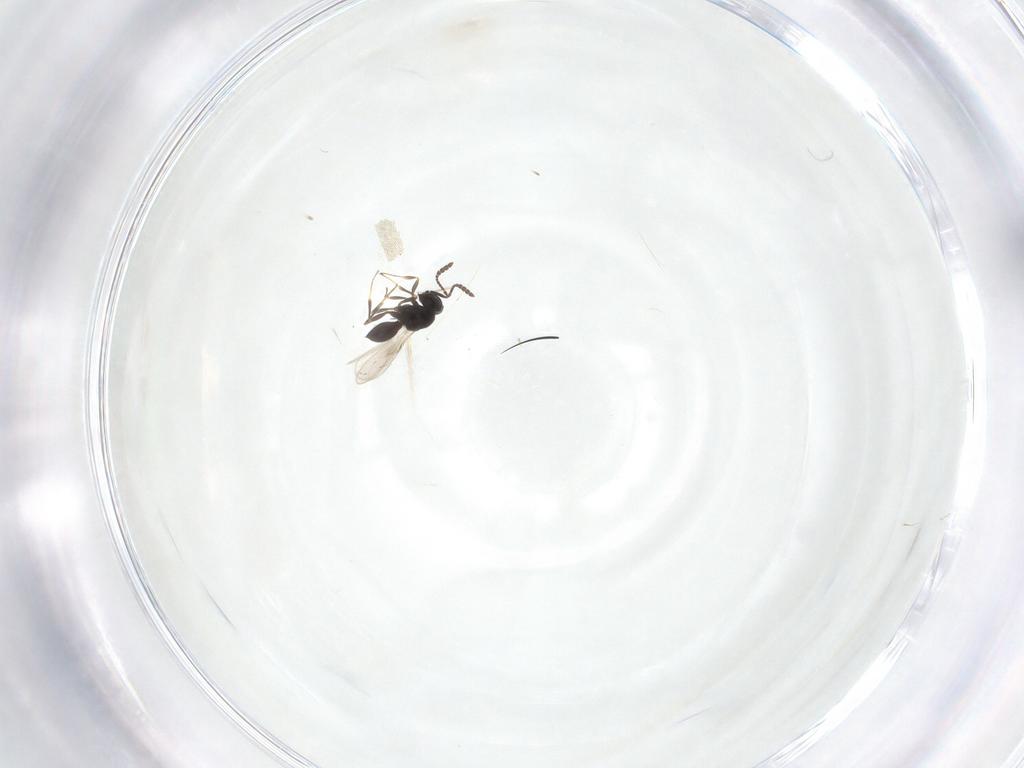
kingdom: Animalia
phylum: Arthropoda
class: Insecta
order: Hymenoptera
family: Scelionidae
